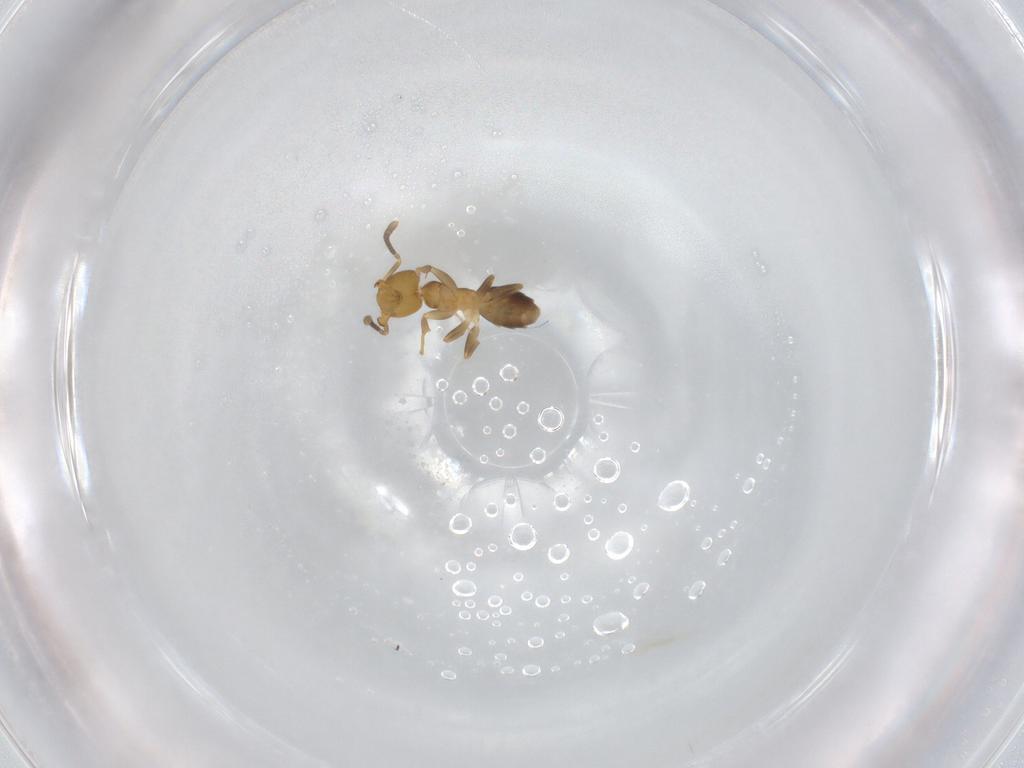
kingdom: Animalia
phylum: Arthropoda
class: Insecta
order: Hymenoptera
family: Formicidae
